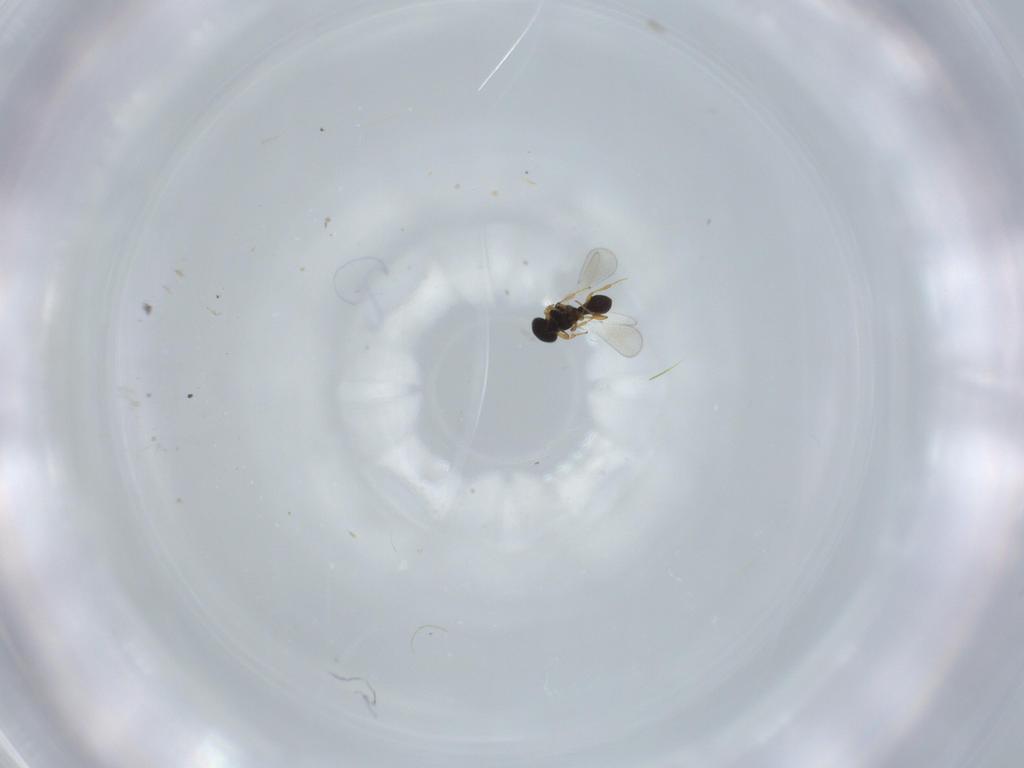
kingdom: Animalia
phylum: Arthropoda
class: Insecta
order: Hymenoptera
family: Platygastridae
